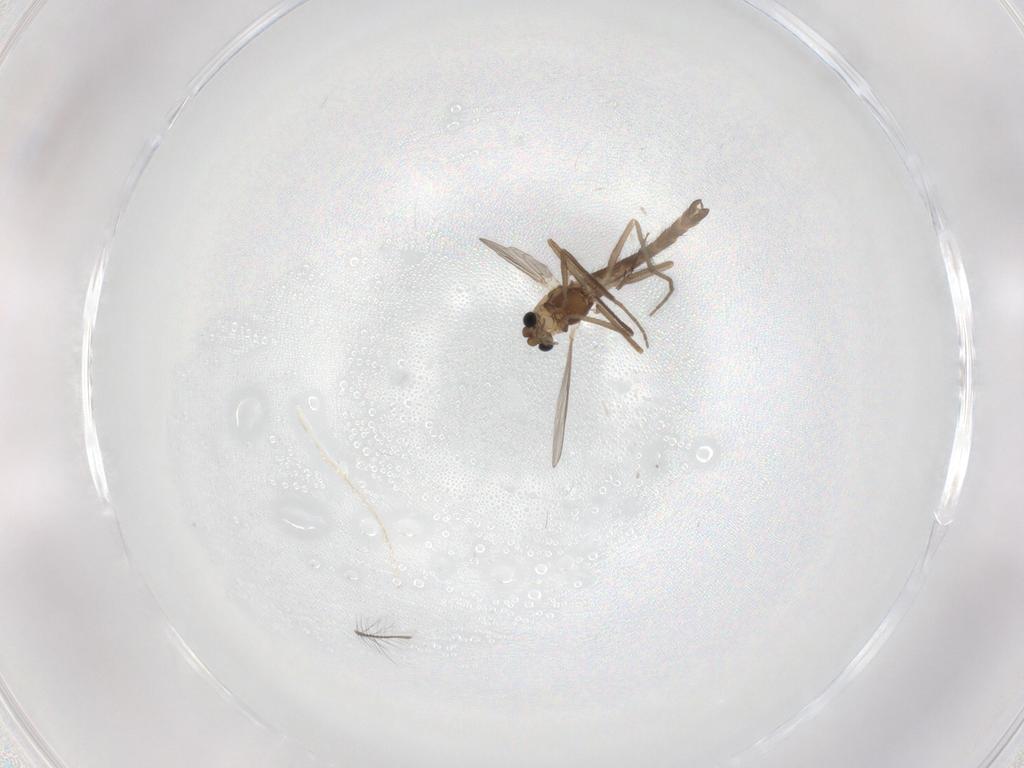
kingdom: Animalia
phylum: Arthropoda
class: Insecta
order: Diptera
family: Chironomidae
